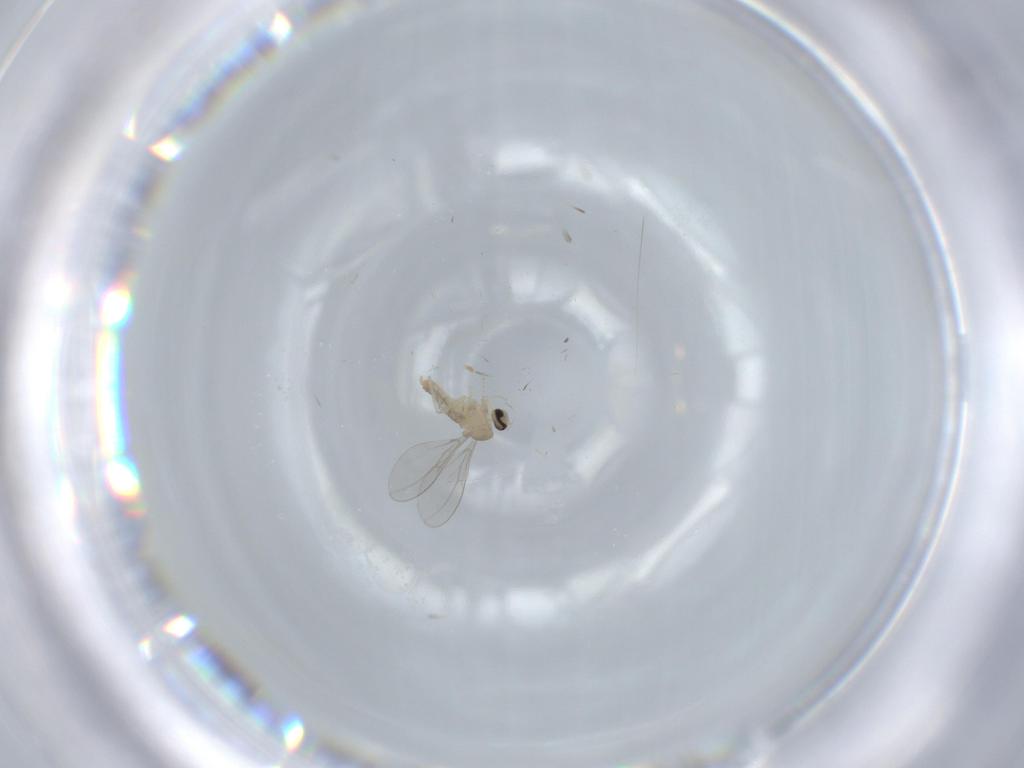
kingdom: Animalia
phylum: Arthropoda
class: Insecta
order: Diptera
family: Cecidomyiidae
